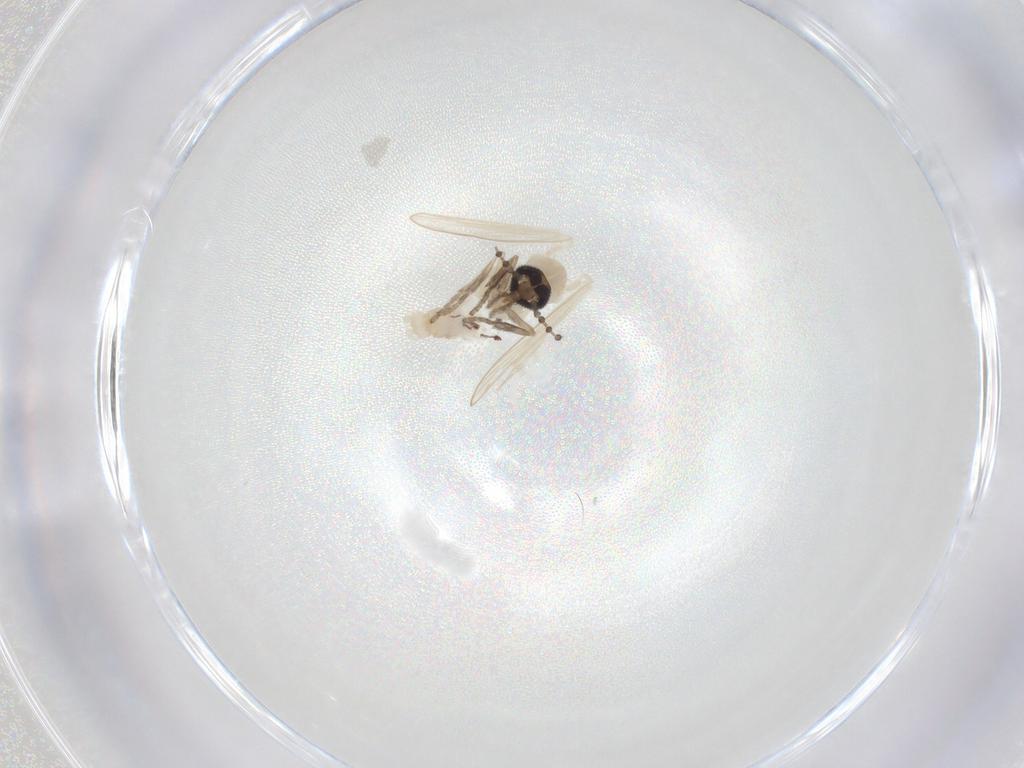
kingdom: Animalia
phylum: Arthropoda
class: Insecta
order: Diptera
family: Psychodidae
